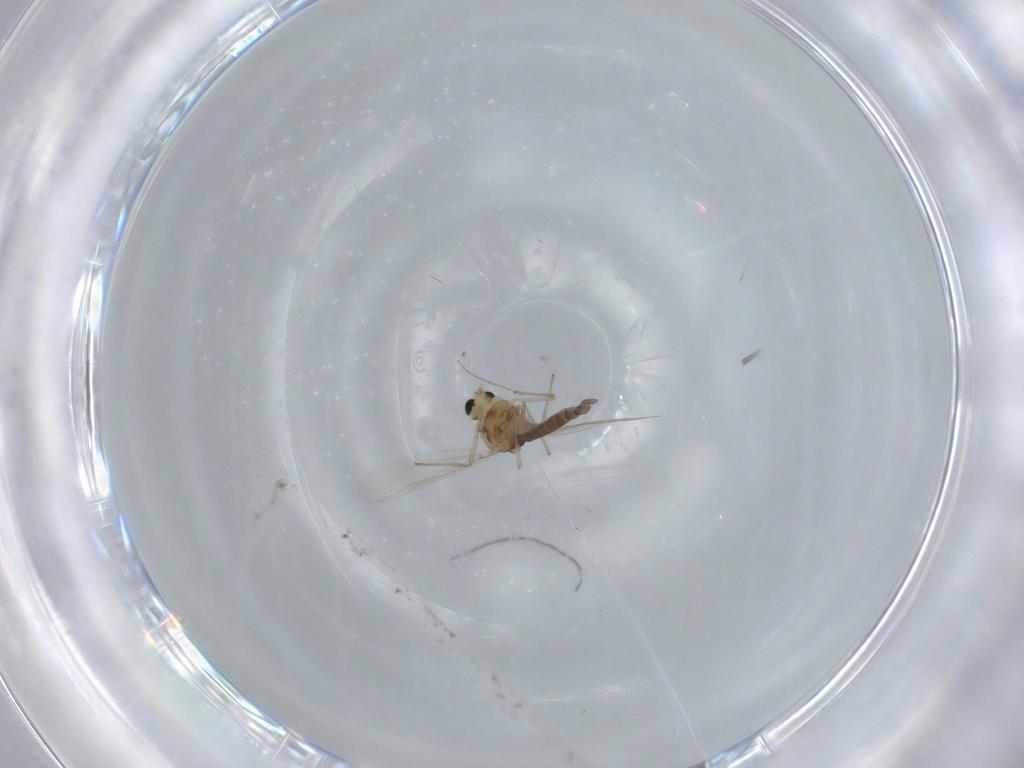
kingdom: Animalia
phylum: Arthropoda
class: Insecta
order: Diptera
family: Chironomidae
